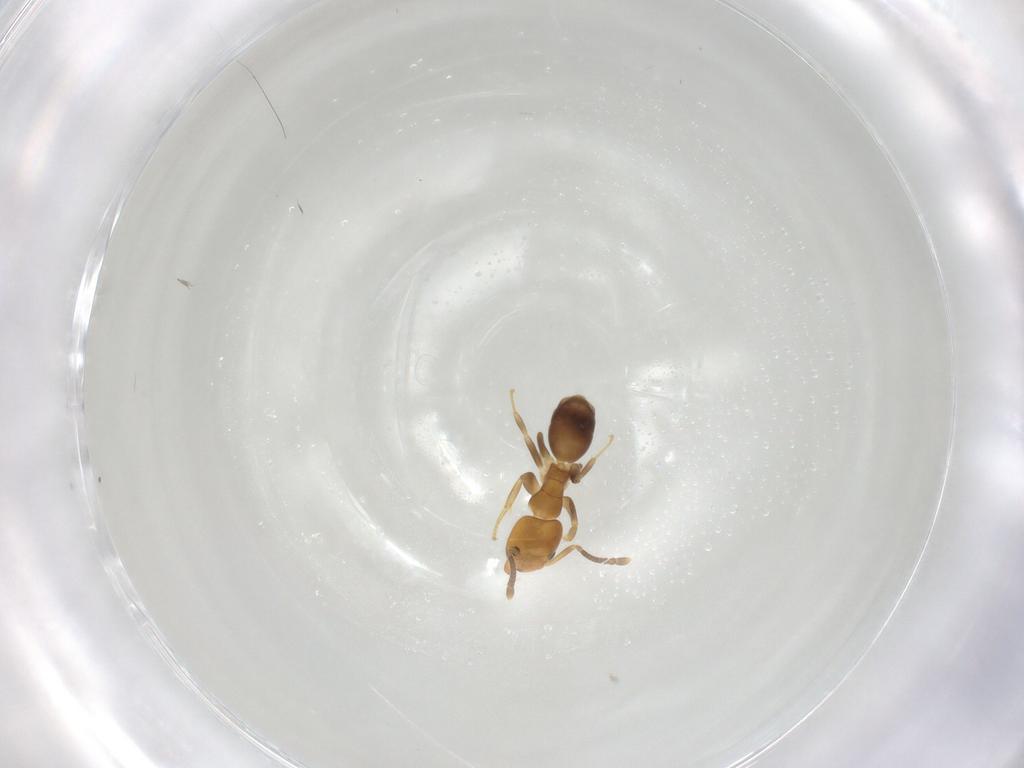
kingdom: Animalia
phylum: Arthropoda
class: Insecta
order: Hymenoptera
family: Formicidae
